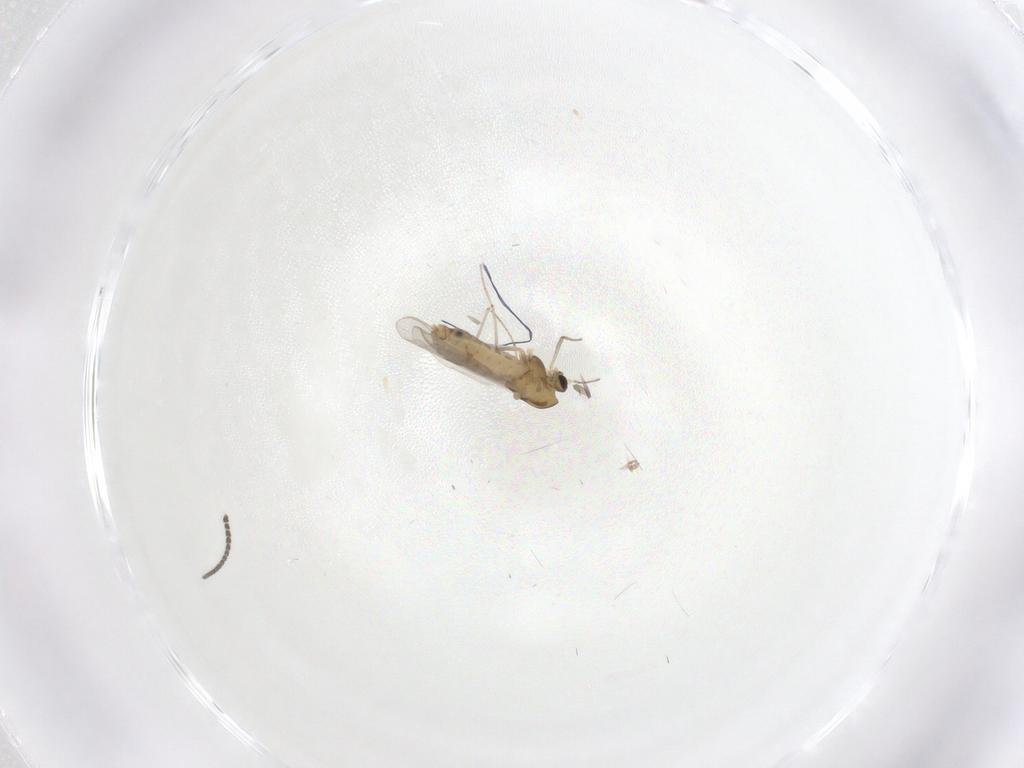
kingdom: Animalia
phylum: Arthropoda
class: Insecta
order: Diptera
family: Chironomidae
